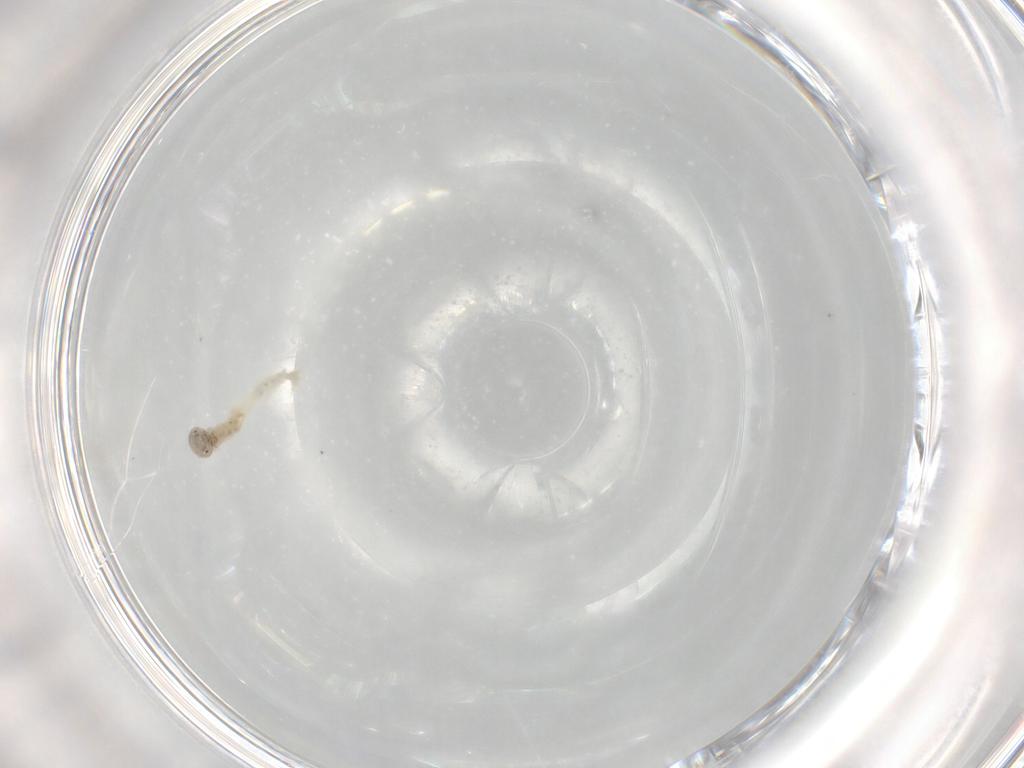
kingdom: Animalia
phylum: Arthropoda
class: Insecta
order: Diptera
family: Chironomidae
